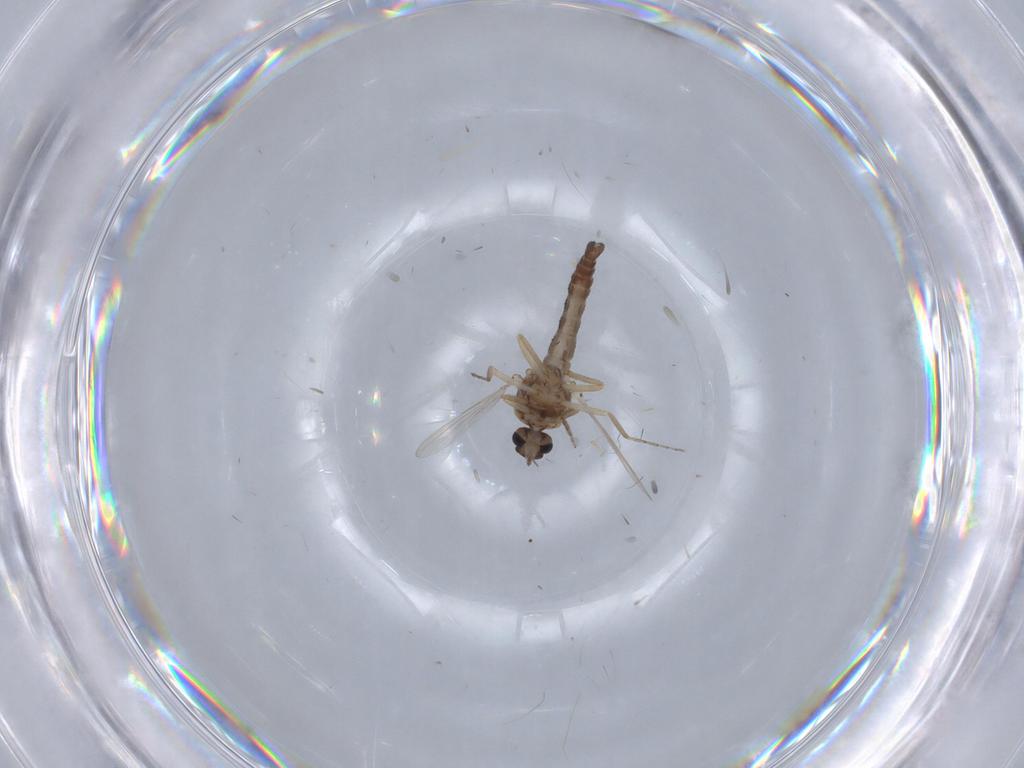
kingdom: Animalia
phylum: Arthropoda
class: Insecta
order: Diptera
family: Ceratopogonidae
